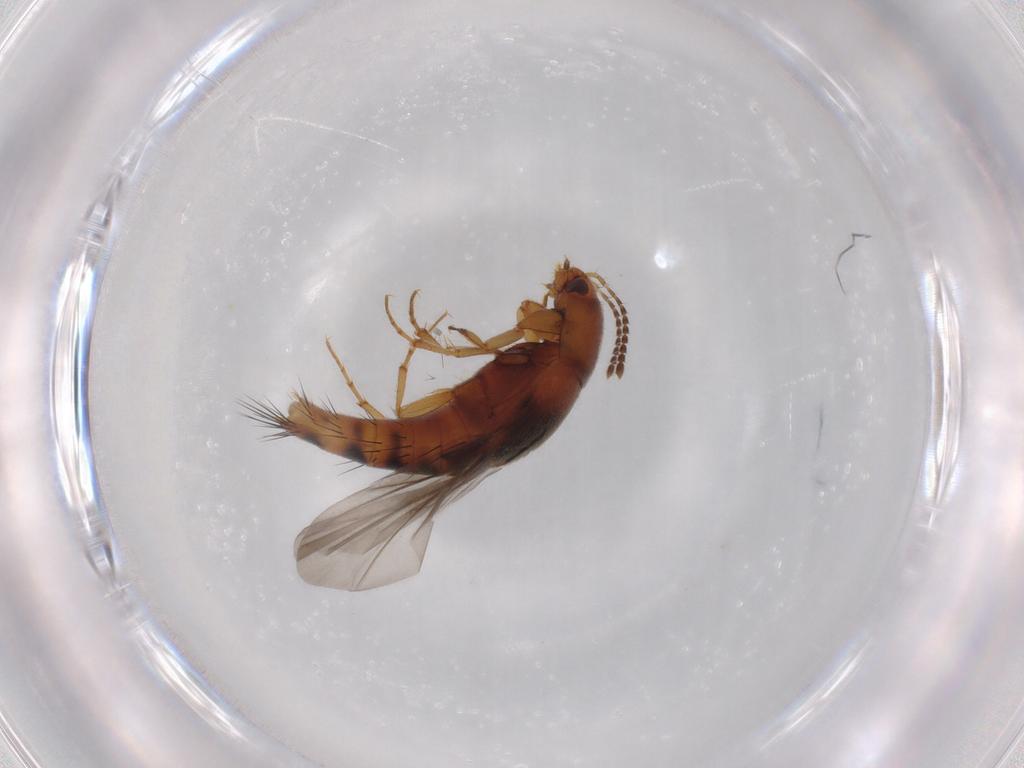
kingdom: Animalia
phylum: Arthropoda
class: Insecta
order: Coleoptera
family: Staphylinidae
